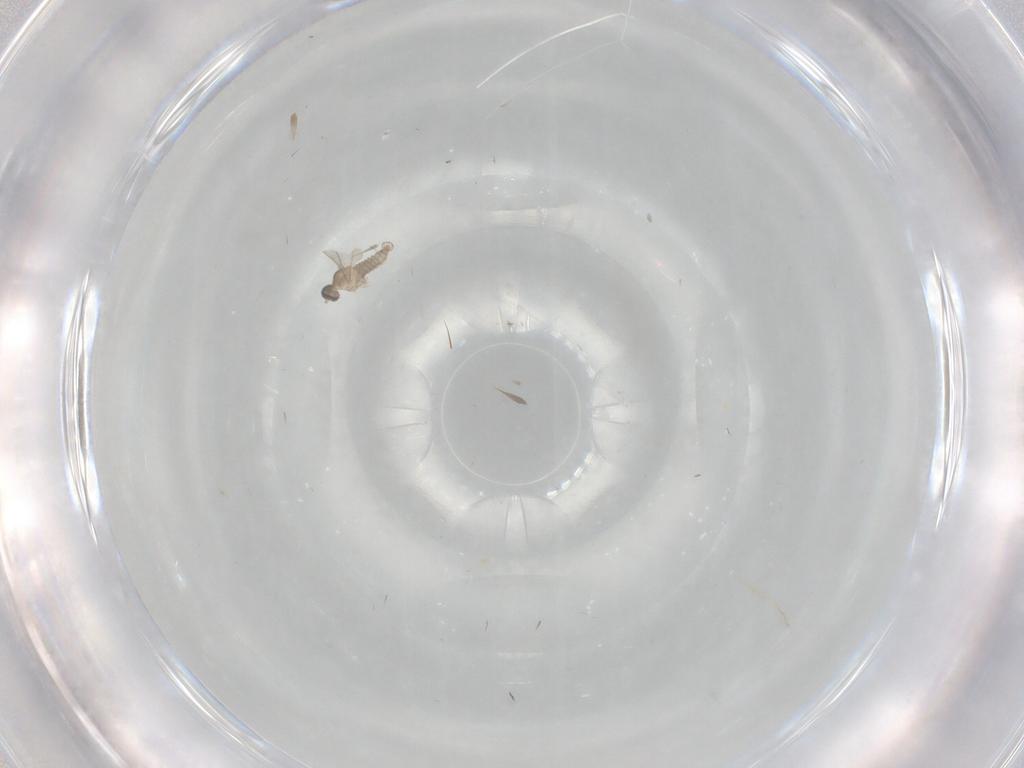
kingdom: Animalia
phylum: Arthropoda
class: Insecta
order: Diptera
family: Cecidomyiidae
